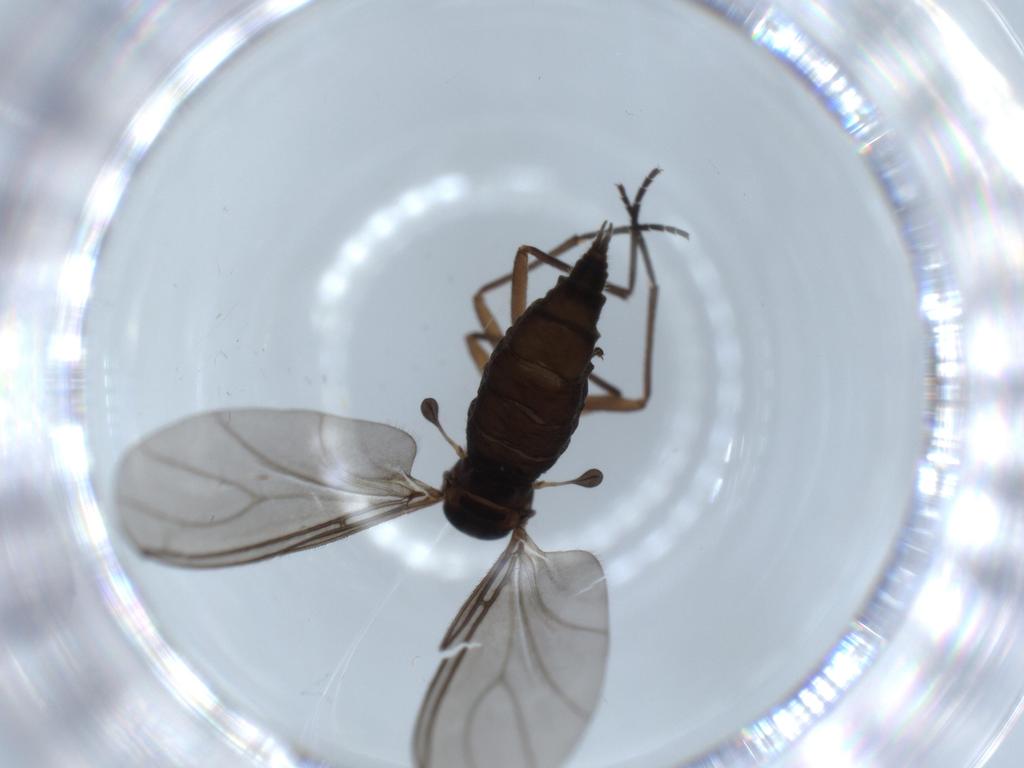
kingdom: Animalia
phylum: Arthropoda
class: Insecta
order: Diptera
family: Sciaridae
